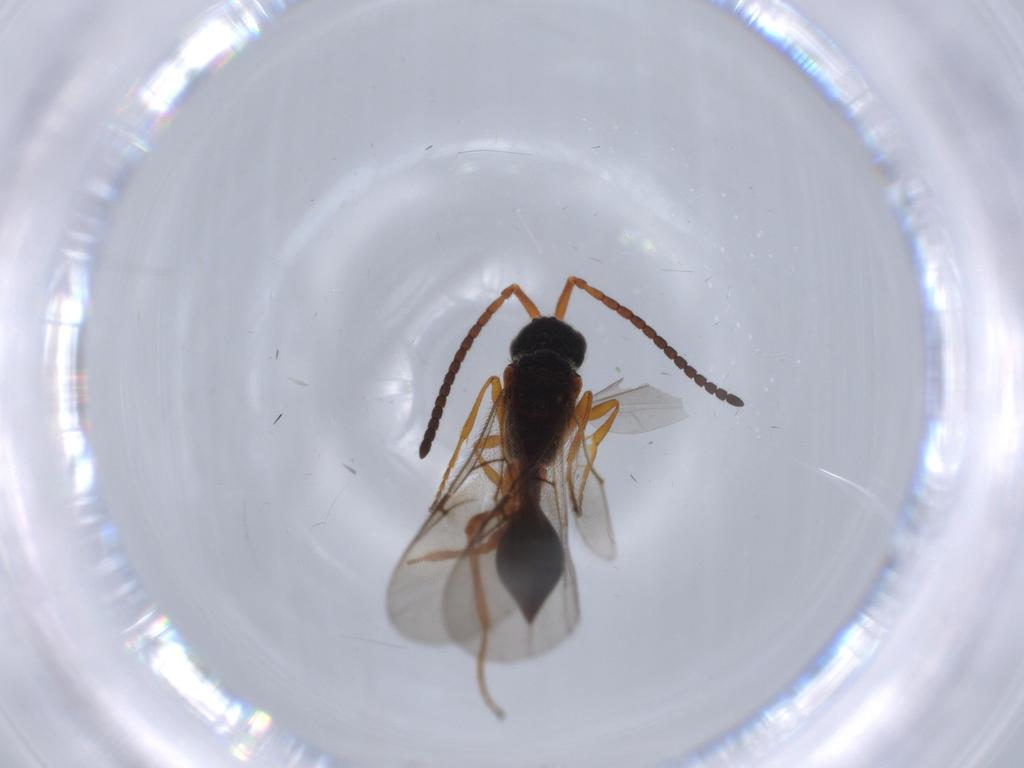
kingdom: Animalia
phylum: Arthropoda
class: Insecta
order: Hymenoptera
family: Diapriidae
